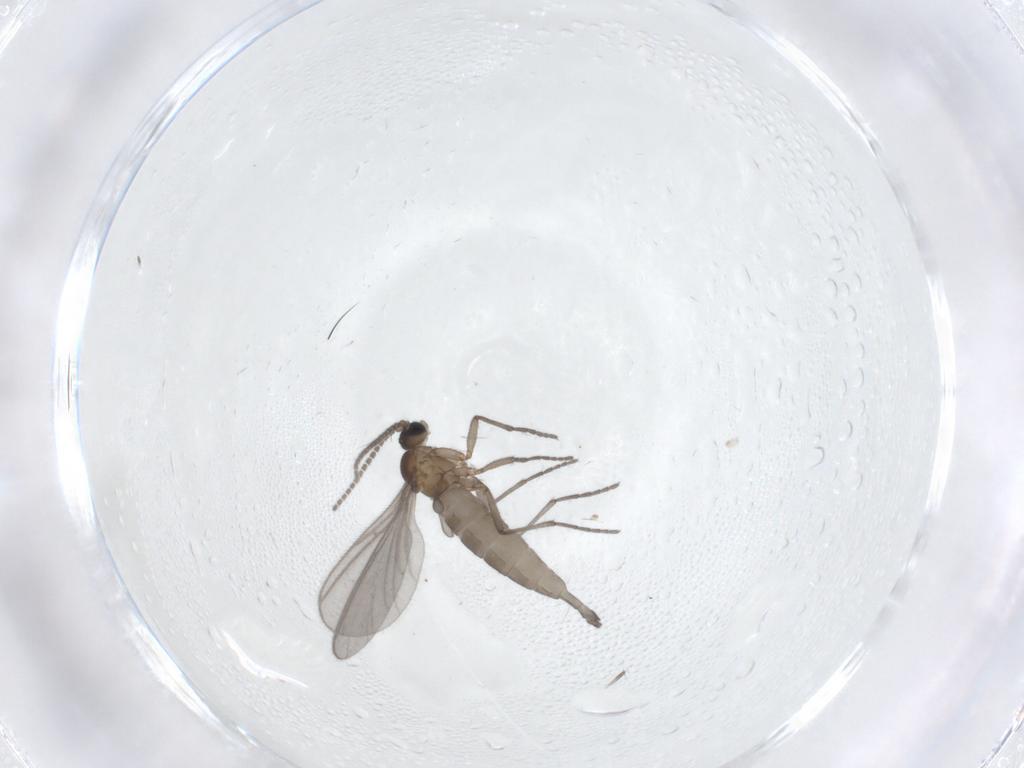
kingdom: Animalia
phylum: Arthropoda
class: Insecta
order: Diptera
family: Sciaridae
